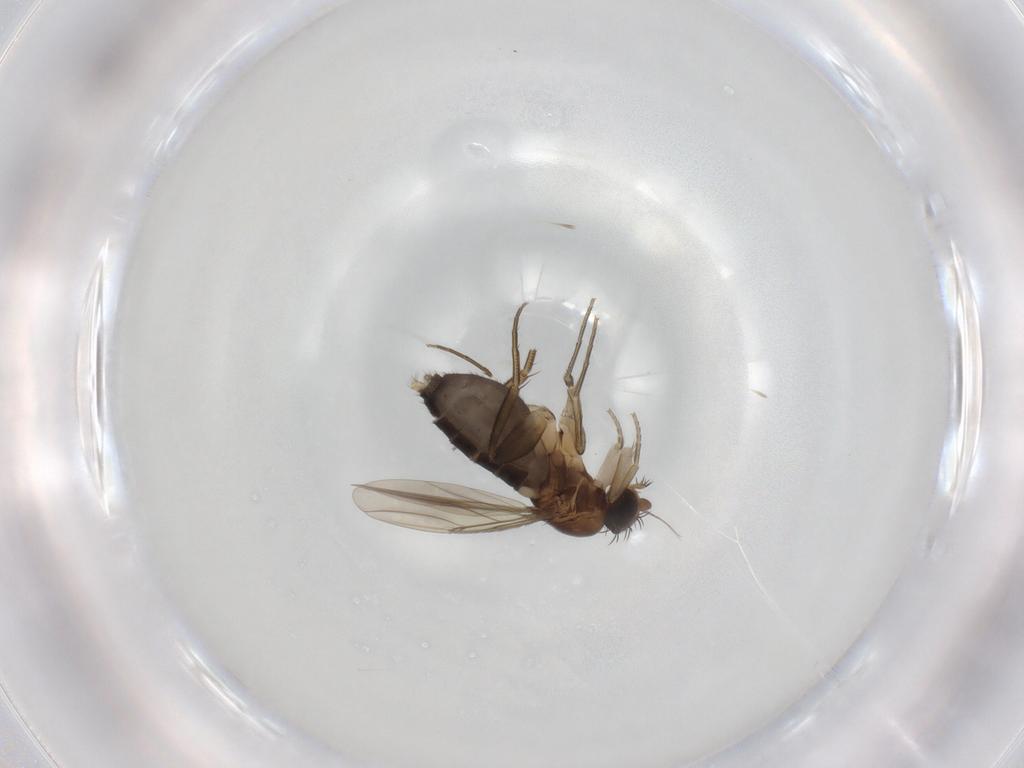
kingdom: Animalia
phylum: Arthropoda
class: Insecta
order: Diptera
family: Phoridae
